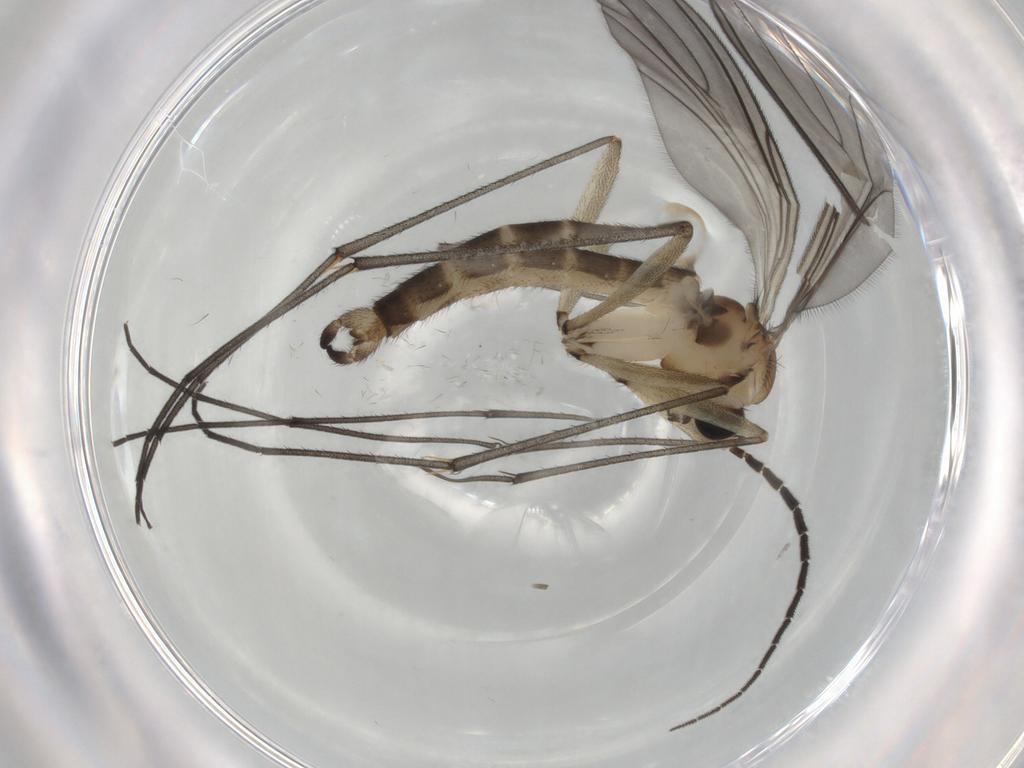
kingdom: Animalia
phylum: Arthropoda
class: Insecta
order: Diptera
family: Sciaridae
